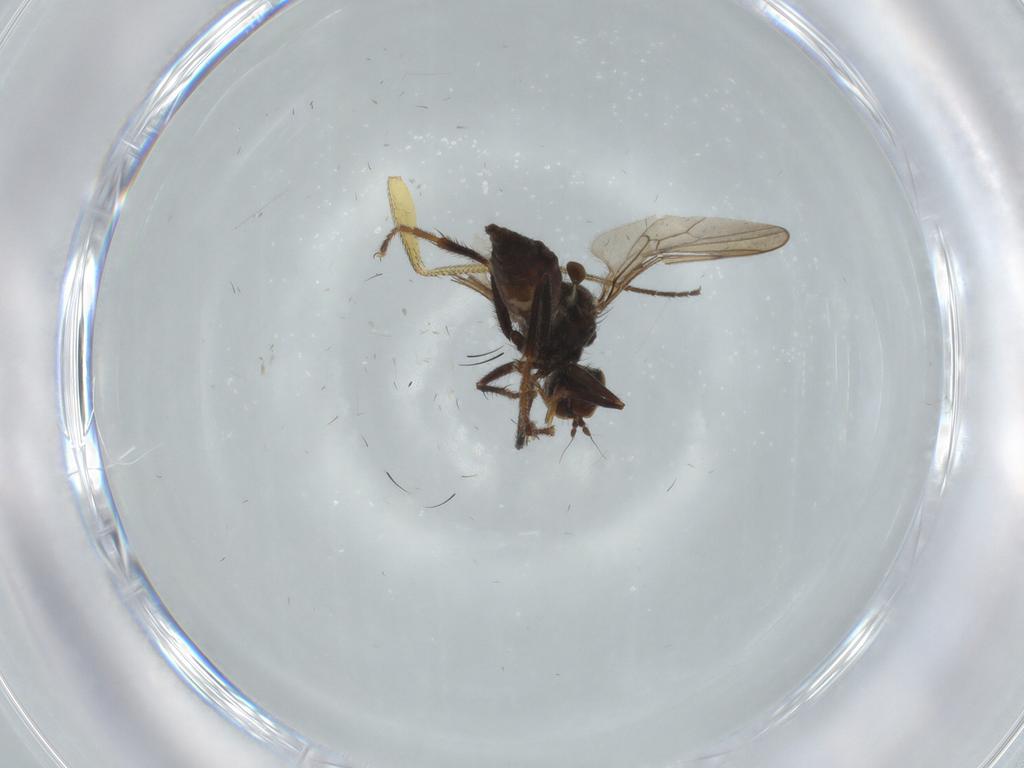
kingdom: Animalia
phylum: Arthropoda
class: Insecta
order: Diptera
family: Hybotidae
